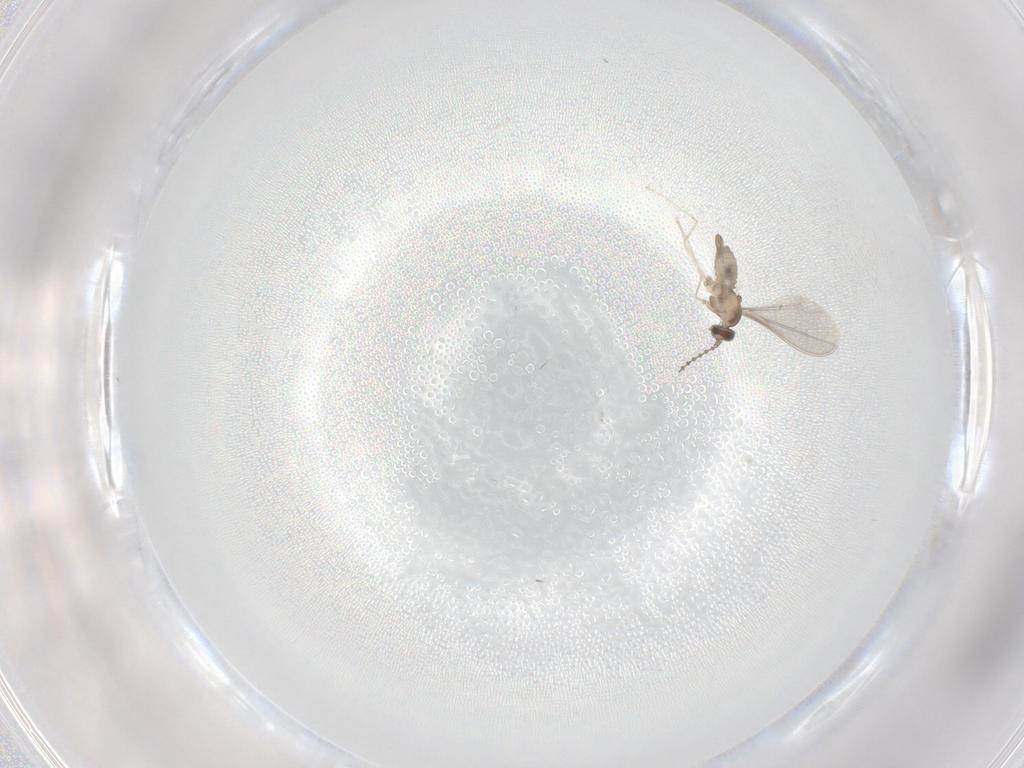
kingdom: Animalia
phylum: Arthropoda
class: Insecta
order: Diptera
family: Cecidomyiidae
